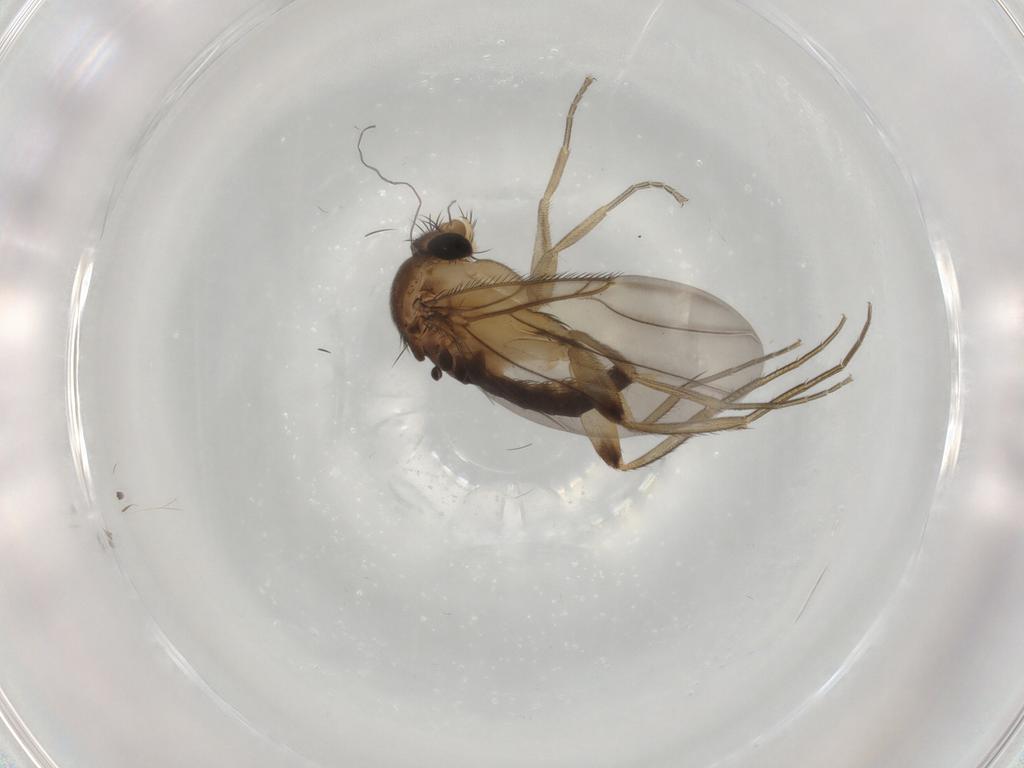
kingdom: Animalia
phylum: Arthropoda
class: Insecta
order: Diptera
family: Phoridae
